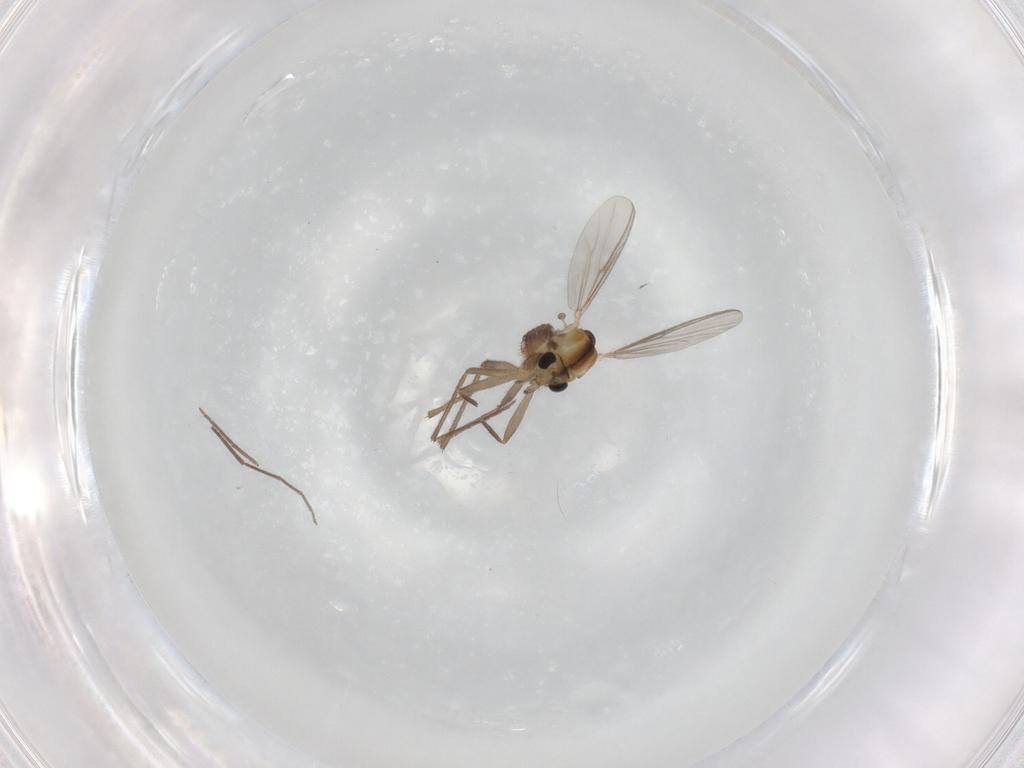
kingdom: Animalia
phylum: Arthropoda
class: Insecta
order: Diptera
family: Chironomidae
